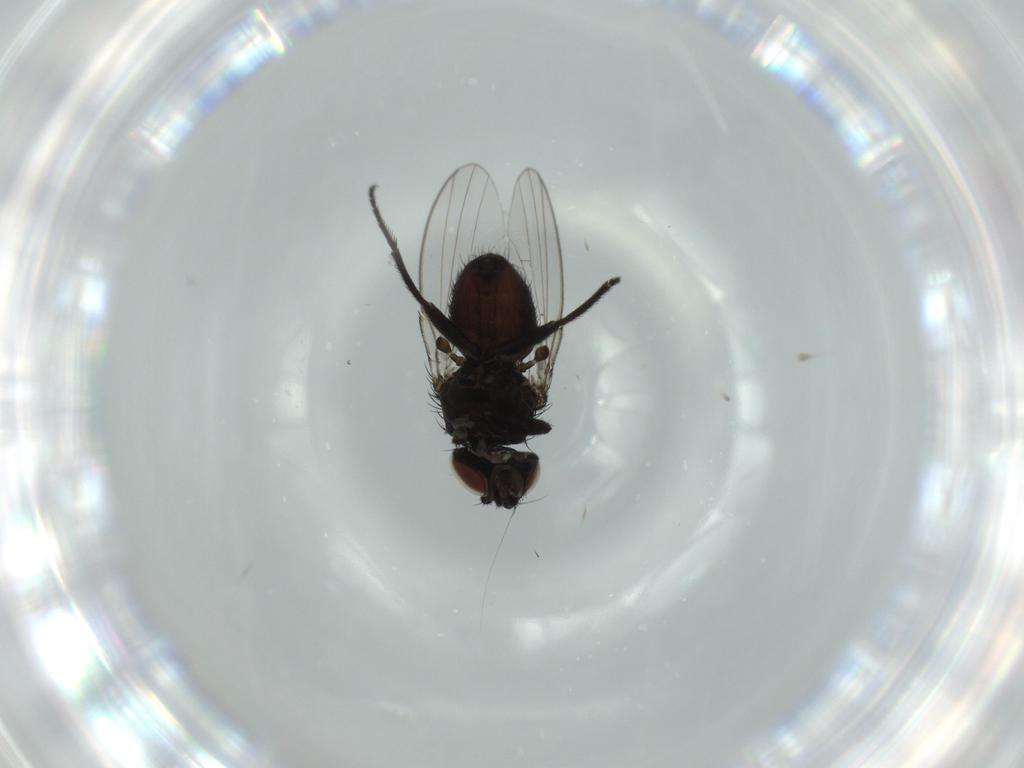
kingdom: Animalia
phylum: Arthropoda
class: Insecta
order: Diptera
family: Milichiidae
